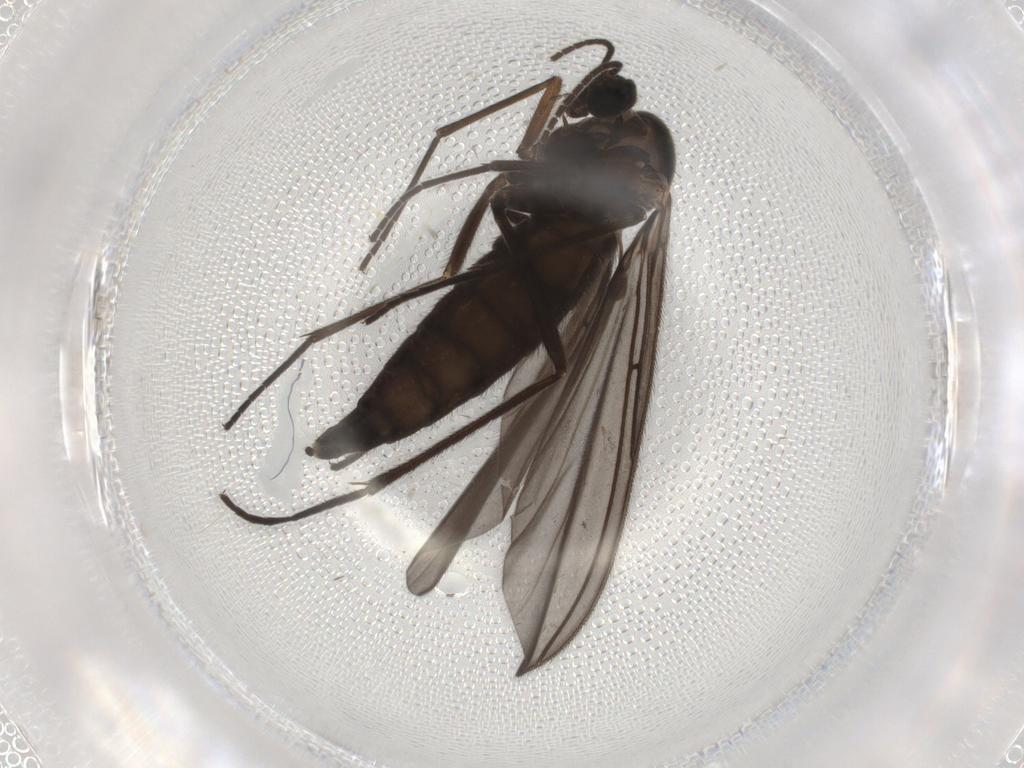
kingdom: Animalia
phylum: Arthropoda
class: Insecta
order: Diptera
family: Sciaridae
